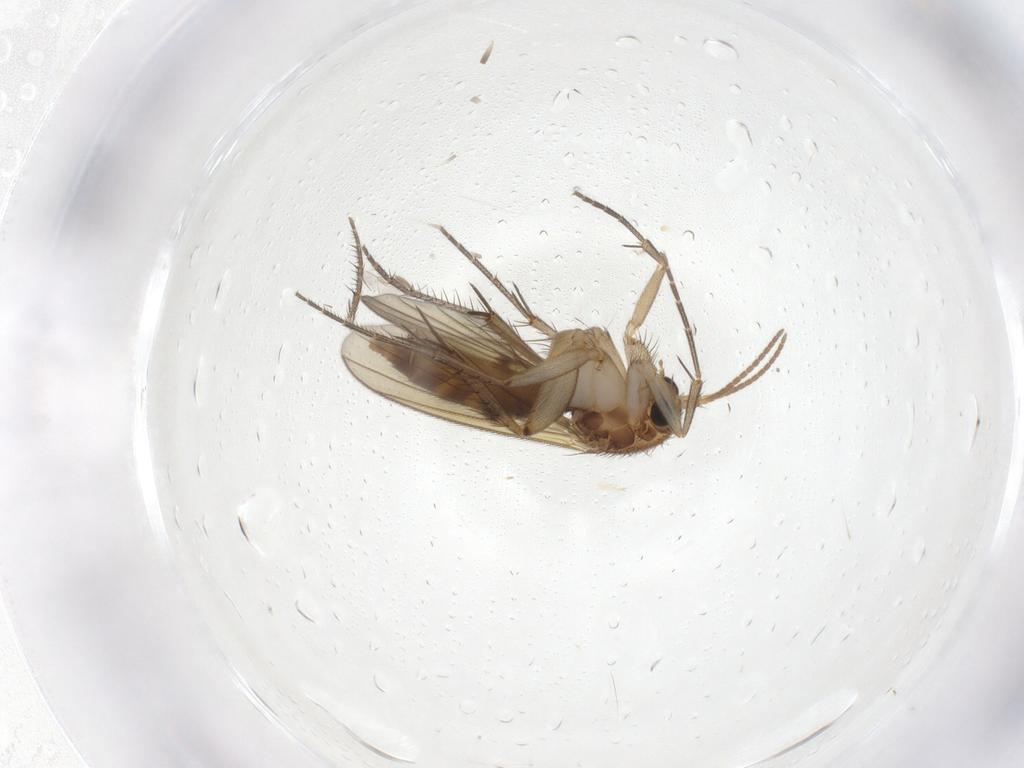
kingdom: Animalia
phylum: Arthropoda
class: Insecta
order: Diptera
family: Mycetophilidae
